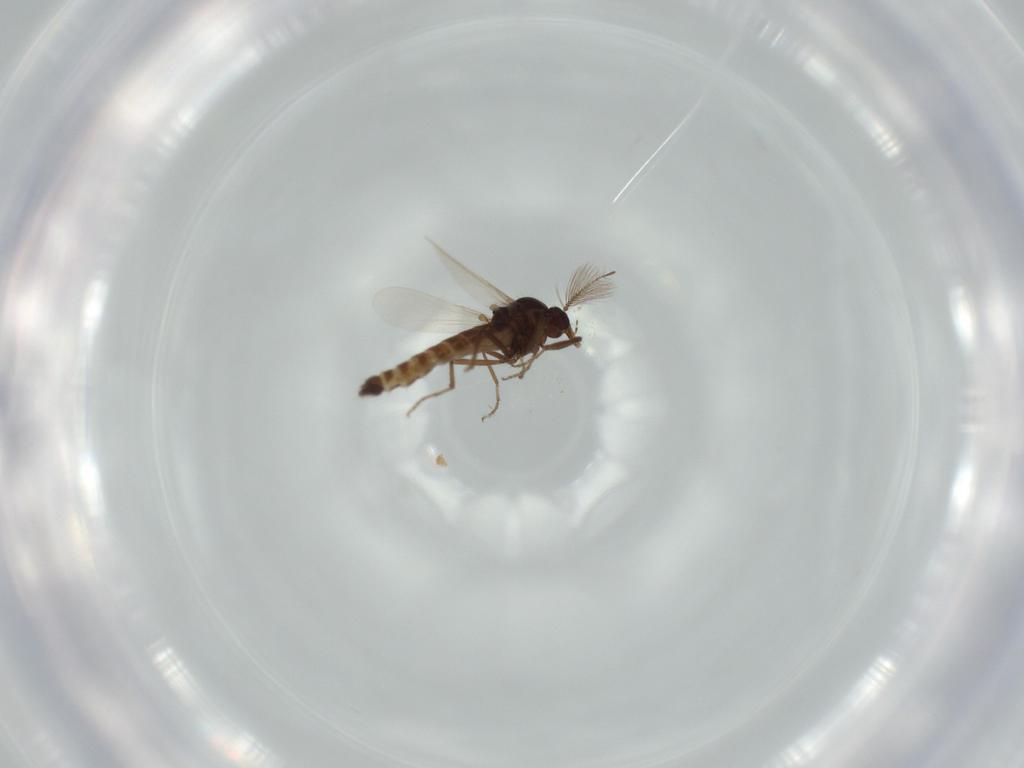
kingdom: Animalia
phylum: Arthropoda
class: Insecta
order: Diptera
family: Ceratopogonidae
